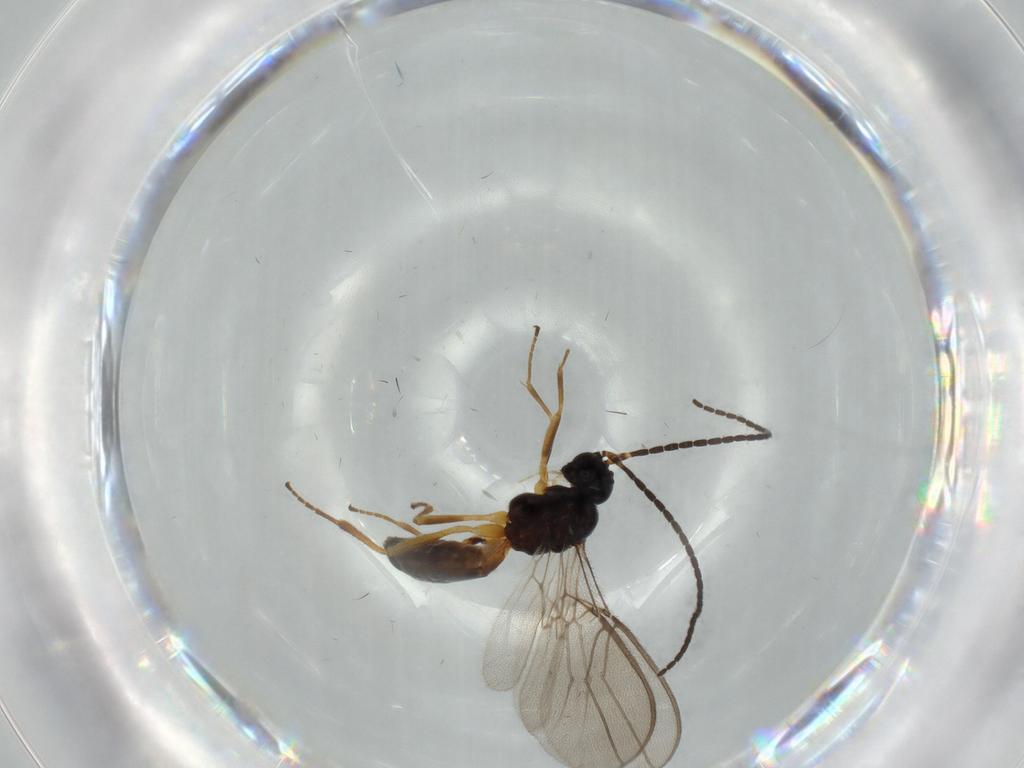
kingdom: Animalia
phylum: Arthropoda
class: Insecta
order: Hymenoptera
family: Braconidae
